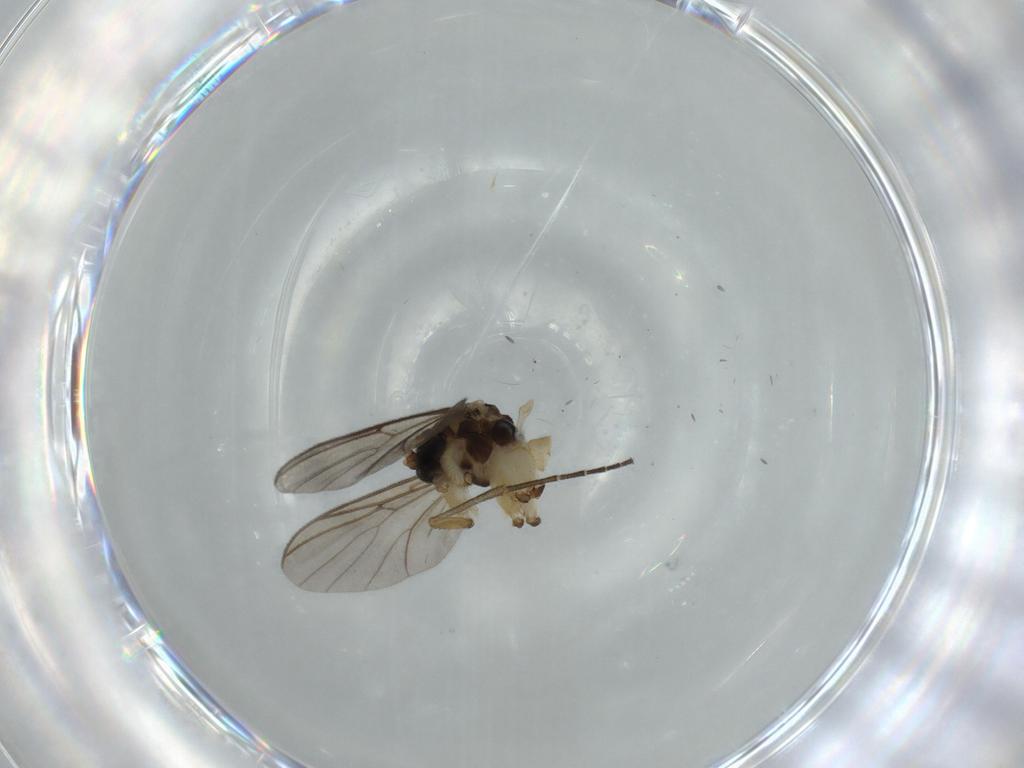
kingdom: Animalia
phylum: Arthropoda
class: Insecta
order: Diptera
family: Mycetophilidae
